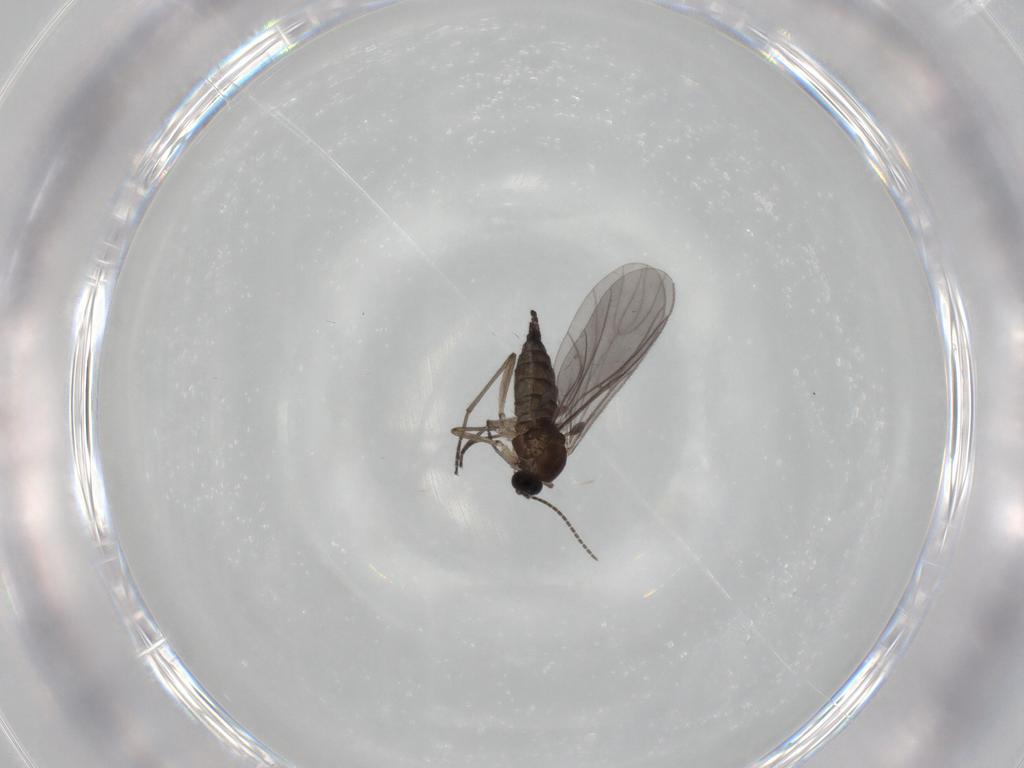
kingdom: Animalia
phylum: Arthropoda
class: Insecta
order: Diptera
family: Sciaridae
